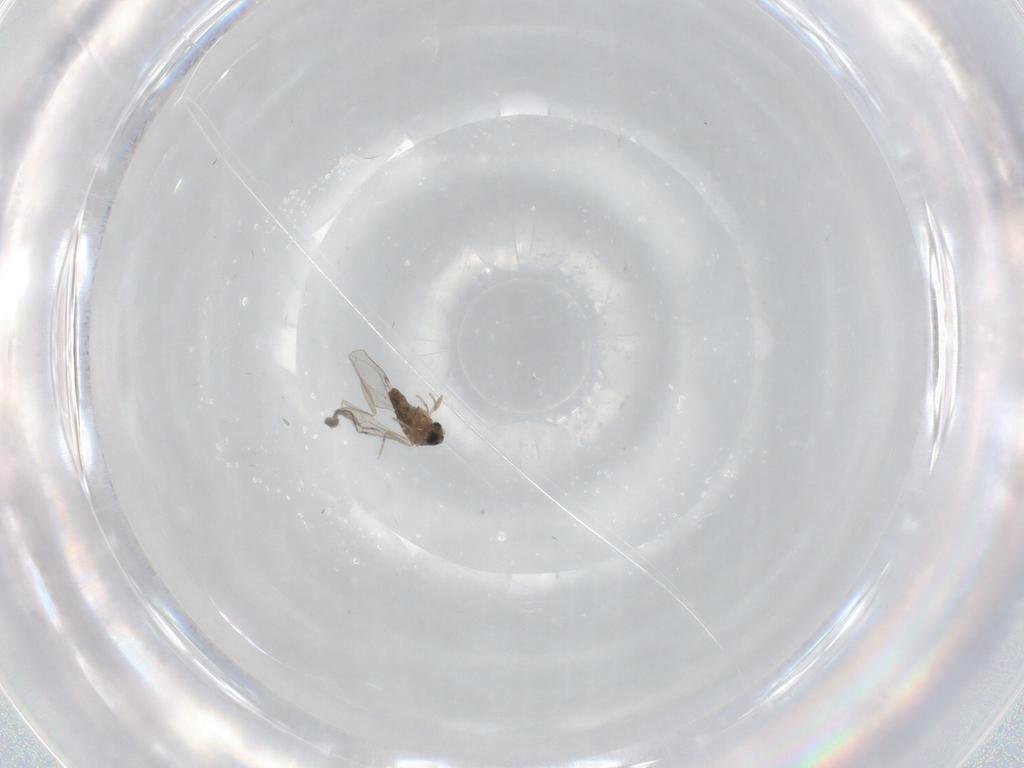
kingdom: Animalia
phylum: Arthropoda
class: Insecta
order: Diptera
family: Cecidomyiidae
